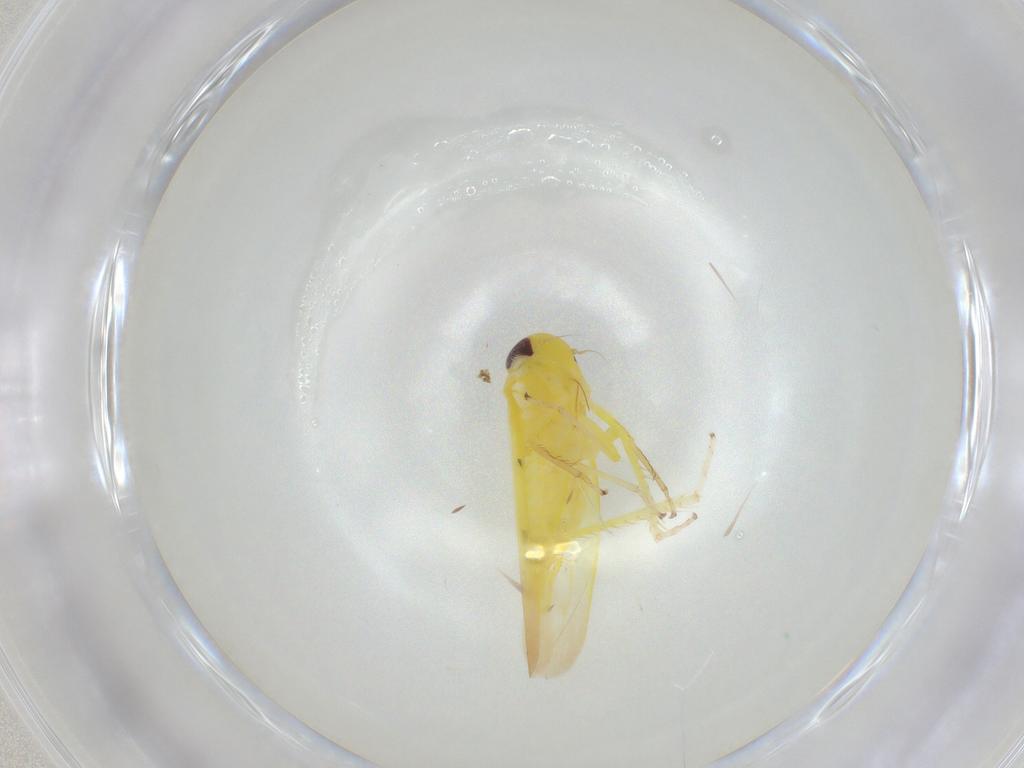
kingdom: Animalia
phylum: Arthropoda
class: Insecta
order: Hemiptera
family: Cicadellidae
